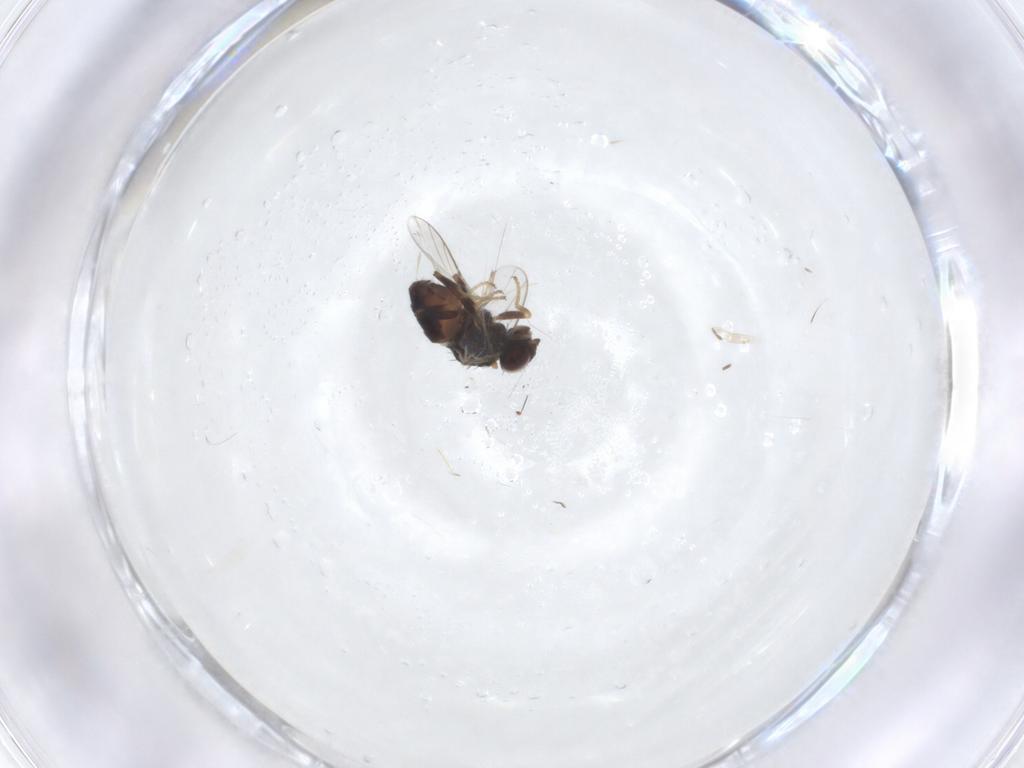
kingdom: Animalia
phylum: Arthropoda
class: Insecta
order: Diptera
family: Chloropidae
